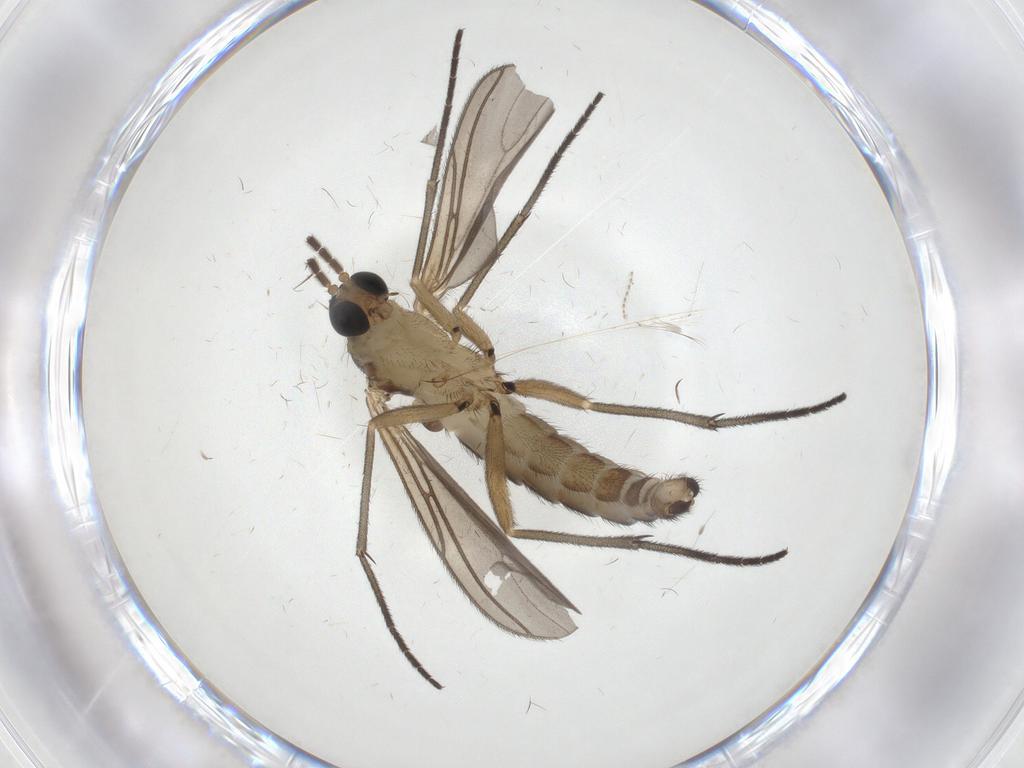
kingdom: Animalia
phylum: Arthropoda
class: Insecta
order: Diptera
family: Sciaridae
